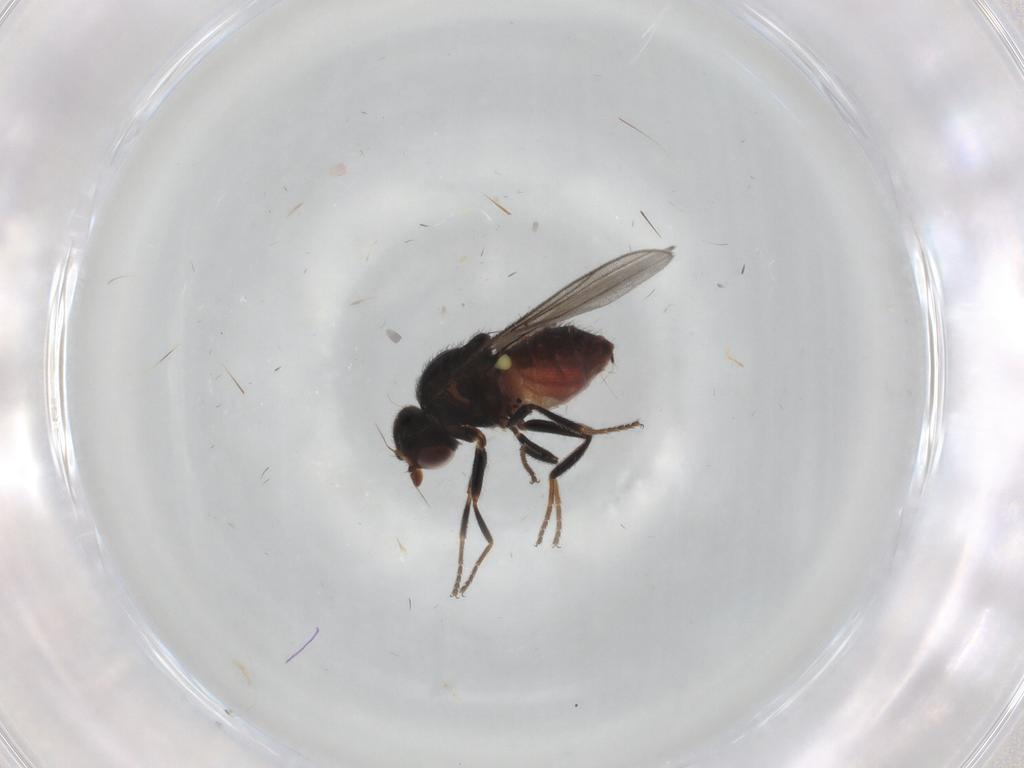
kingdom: Animalia
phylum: Arthropoda
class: Insecta
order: Diptera
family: Chloropidae
